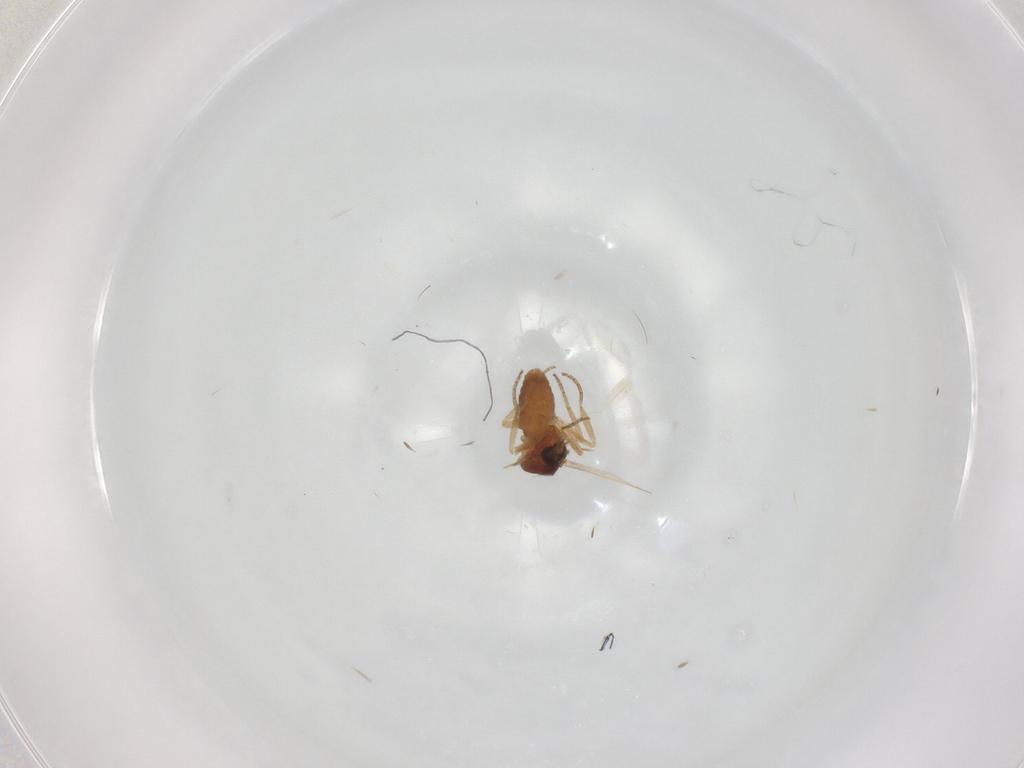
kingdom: Animalia
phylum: Arthropoda
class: Insecta
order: Diptera
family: Ceratopogonidae
